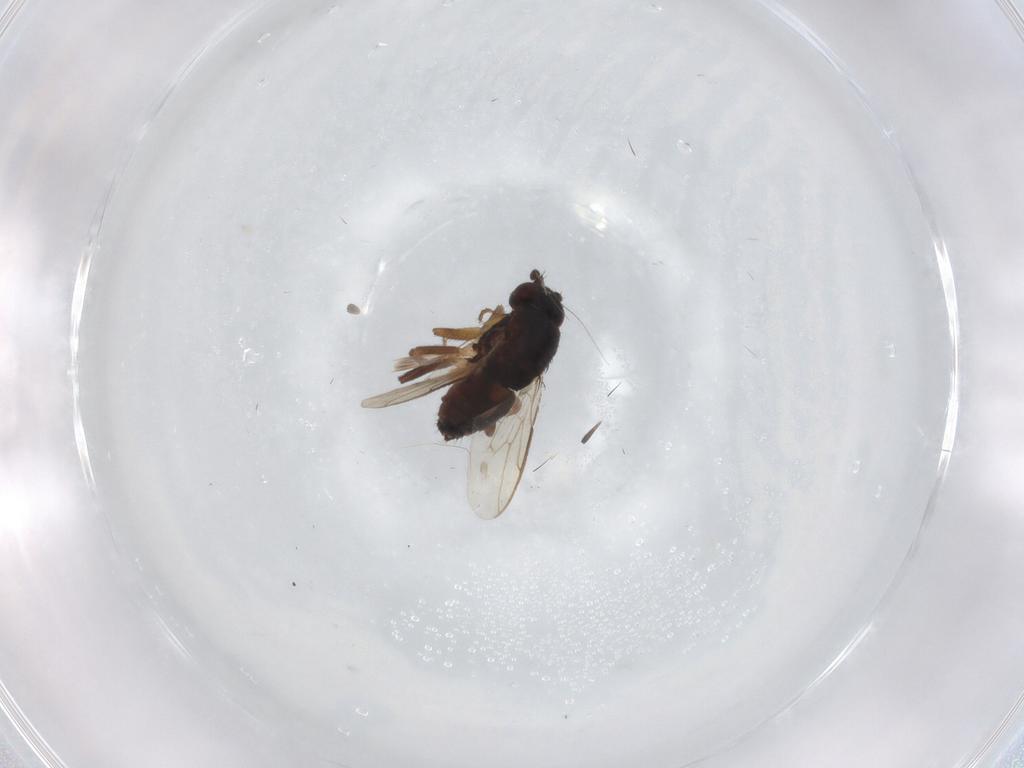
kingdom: Animalia
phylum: Arthropoda
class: Insecta
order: Diptera
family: Sphaeroceridae
